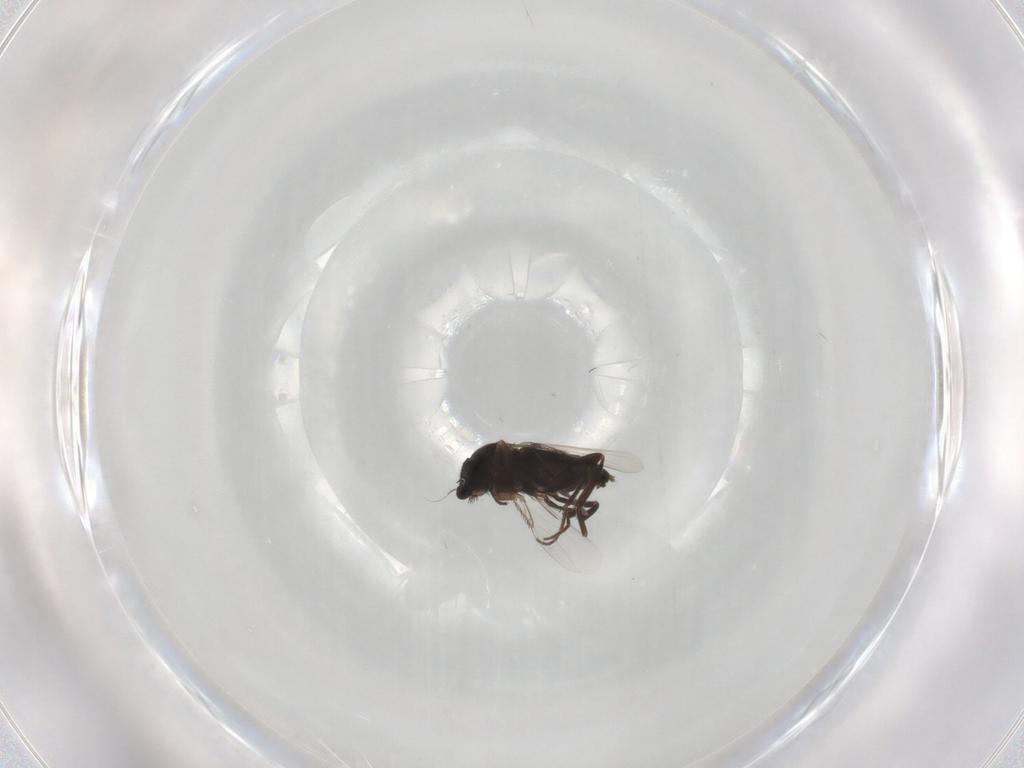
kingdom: Animalia
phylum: Arthropoda
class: Insecta
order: Diptera
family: Phoridae
